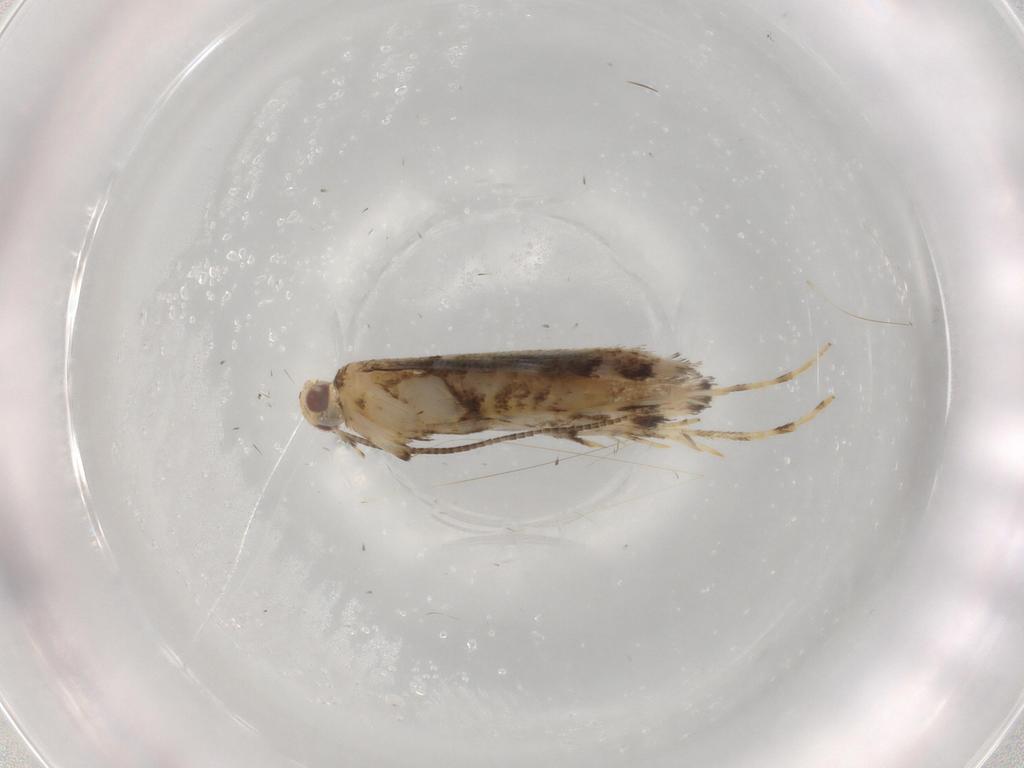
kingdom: Animalia
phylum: Arthropoda
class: Insecta
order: Lepidoptera
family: Gracillariidae
